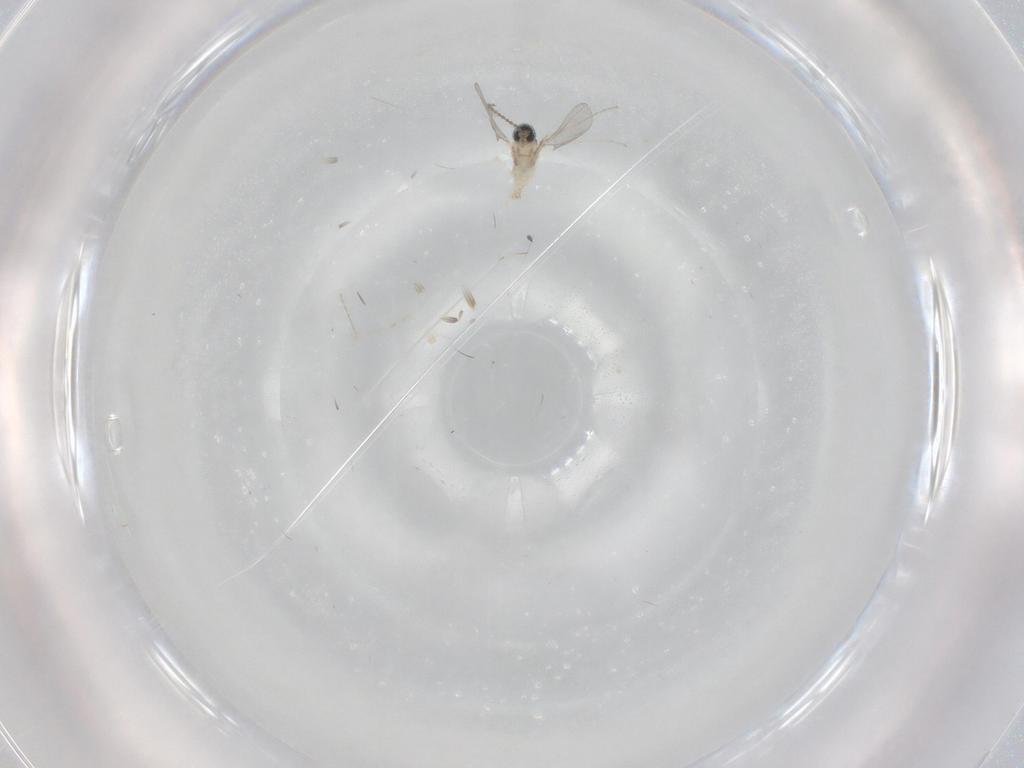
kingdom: Animalia
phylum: Arthropoda
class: Insecta
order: Diptera
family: Cecidomyiidae
